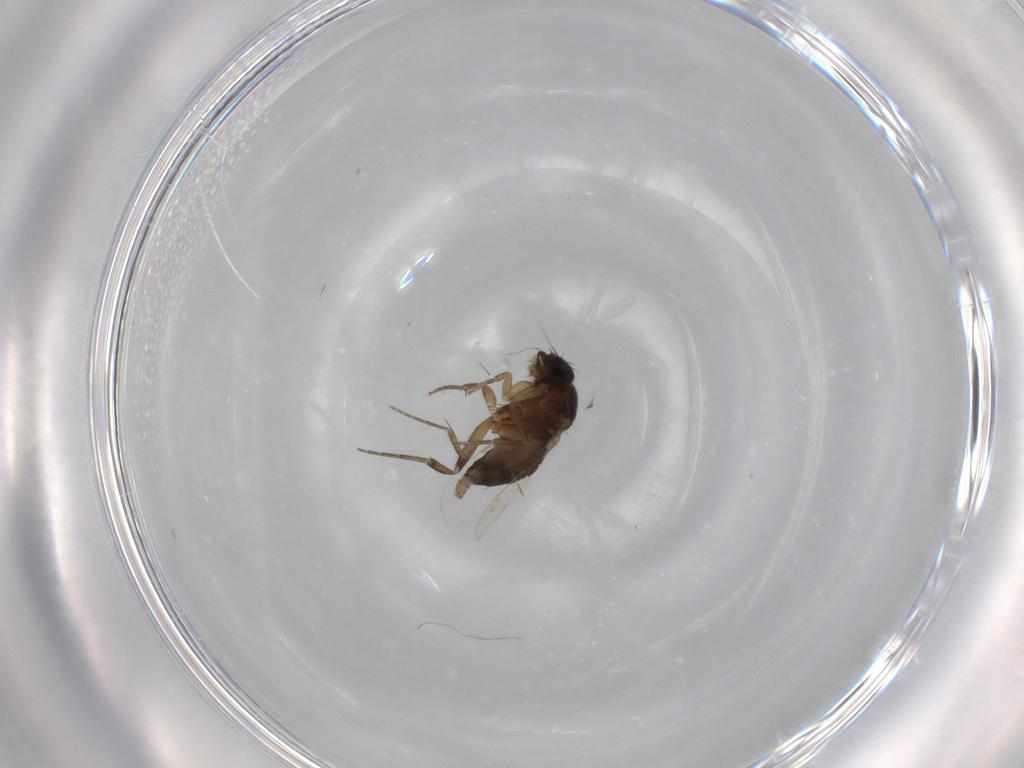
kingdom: Animalia
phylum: Arthropoda
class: Insecta
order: Diptera
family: Phoridae
